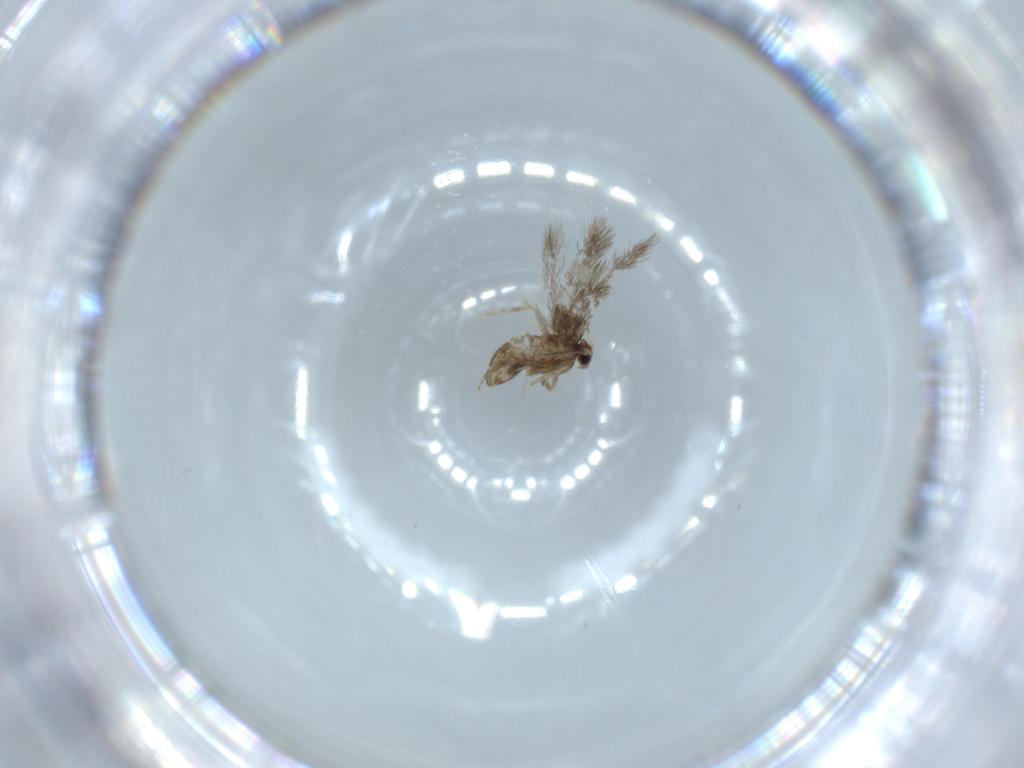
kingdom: Animalia
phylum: Arthropoda
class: Insecta
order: Lepidoptera
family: Nepticulidae
